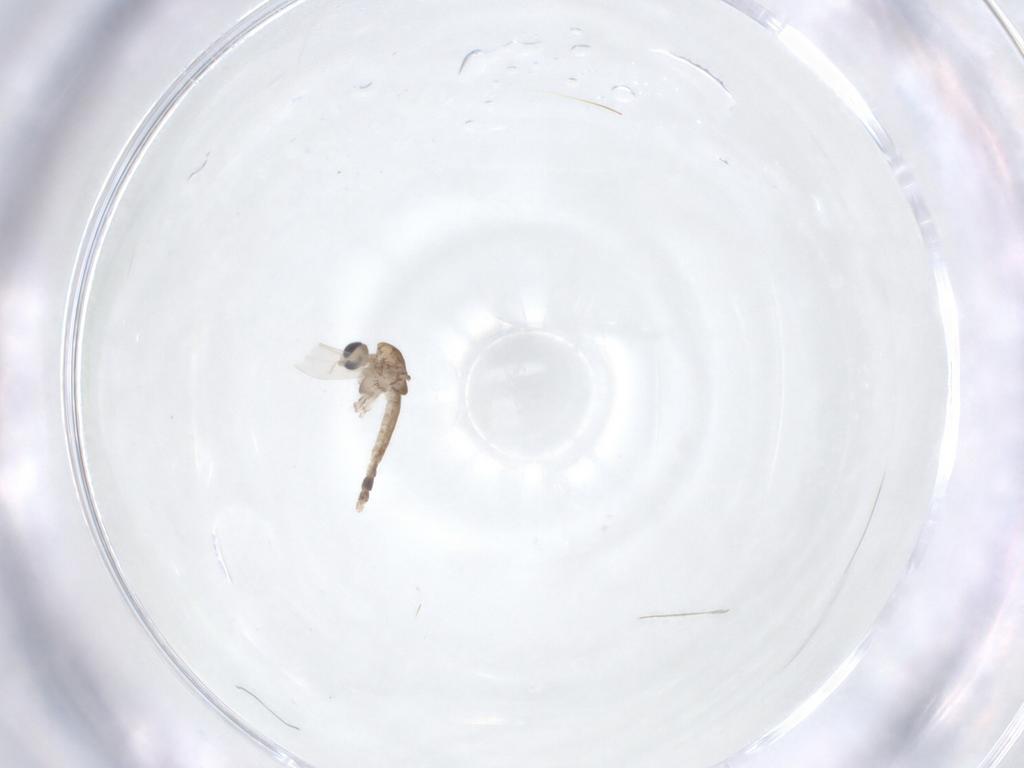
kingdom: Animalia
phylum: Arthropoda
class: Insecta
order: Diptera
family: Chironomidae
